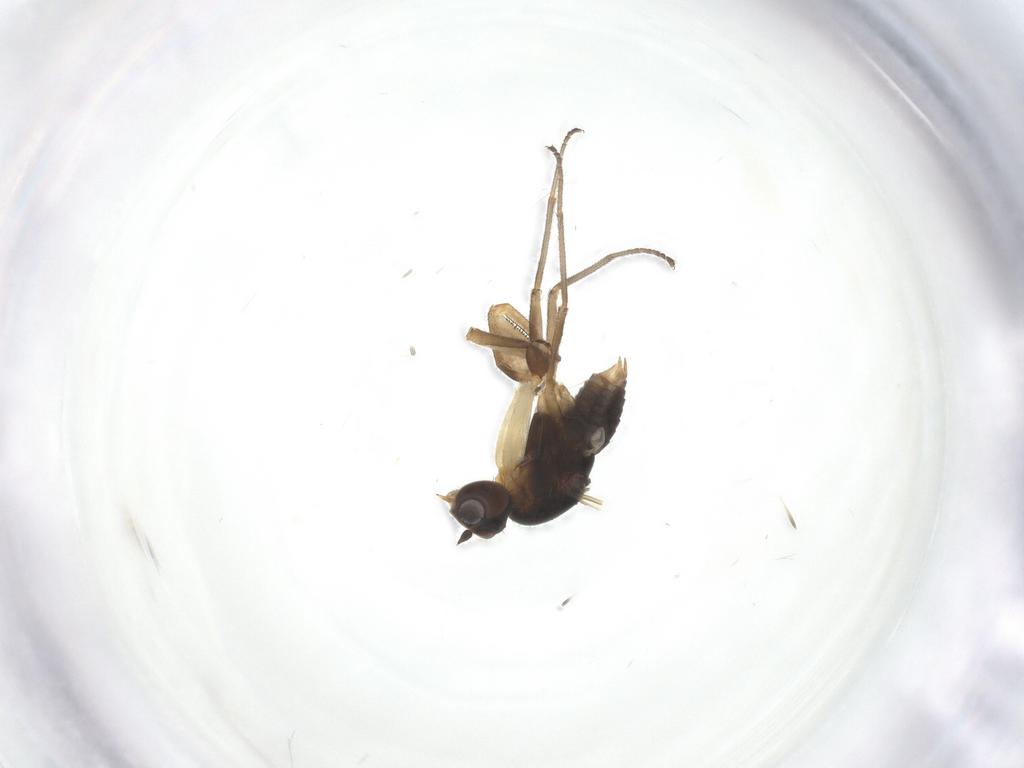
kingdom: Animalia
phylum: Arthropoda
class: Insecta
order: Diptera
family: Empididae
